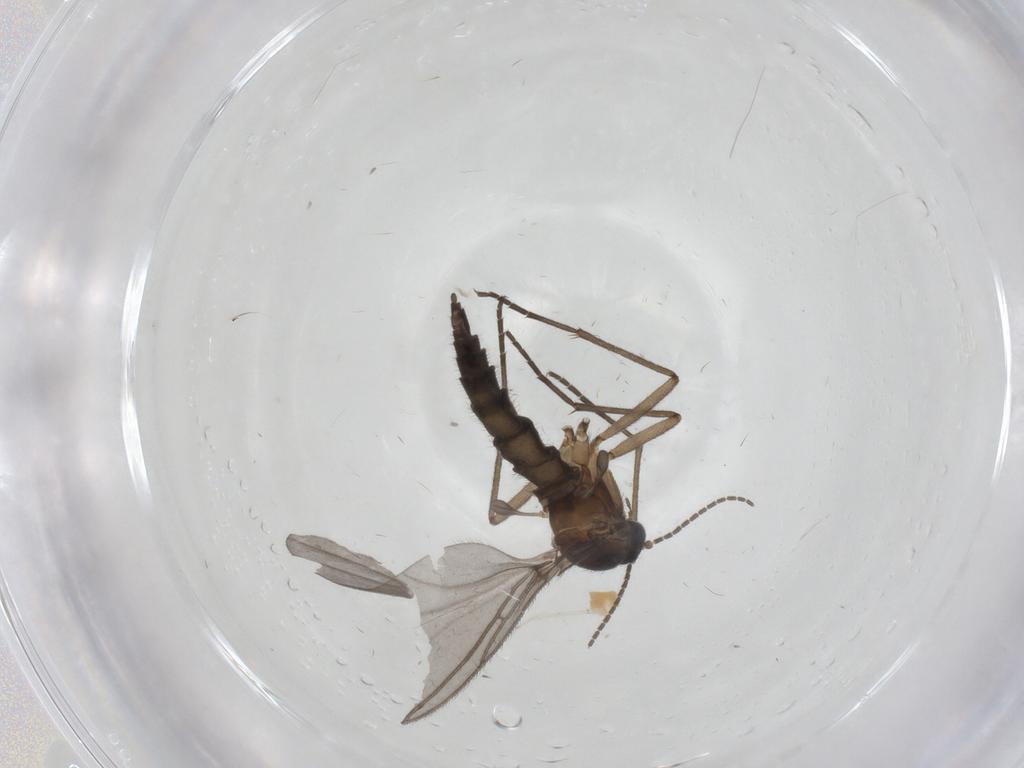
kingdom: Animalia
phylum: Arthropoda
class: Insecta
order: Diptera
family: Sciaridae
